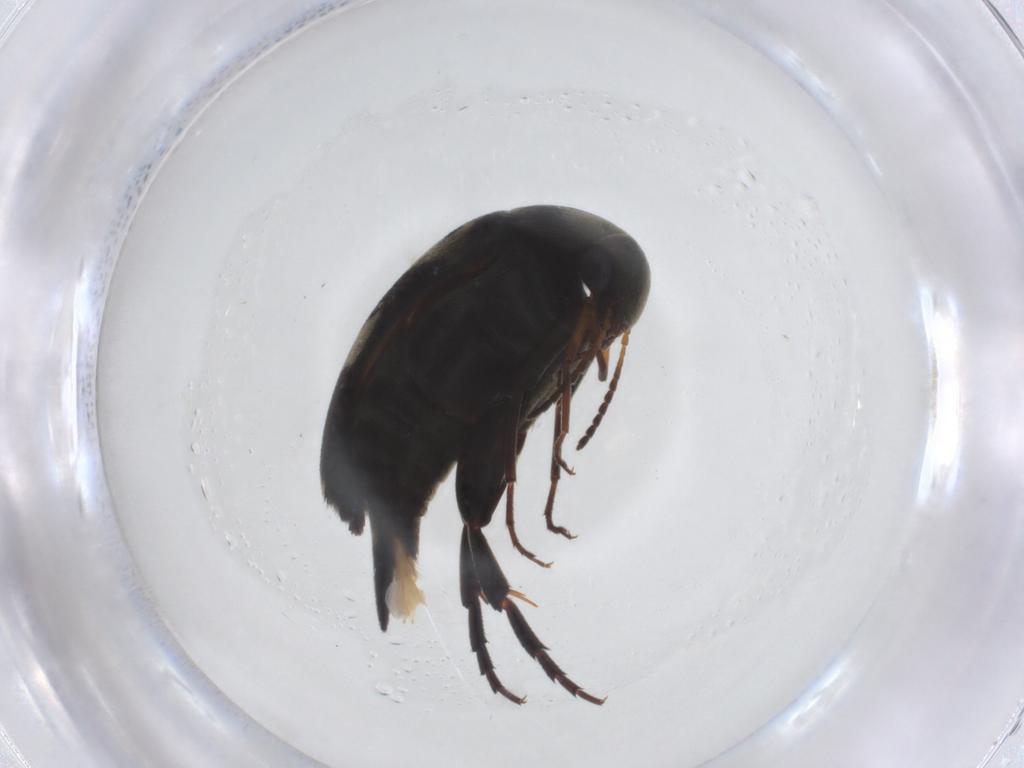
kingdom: Animalia
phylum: Arthropoda
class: Insecta
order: Coleoptera
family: Mordellidae
